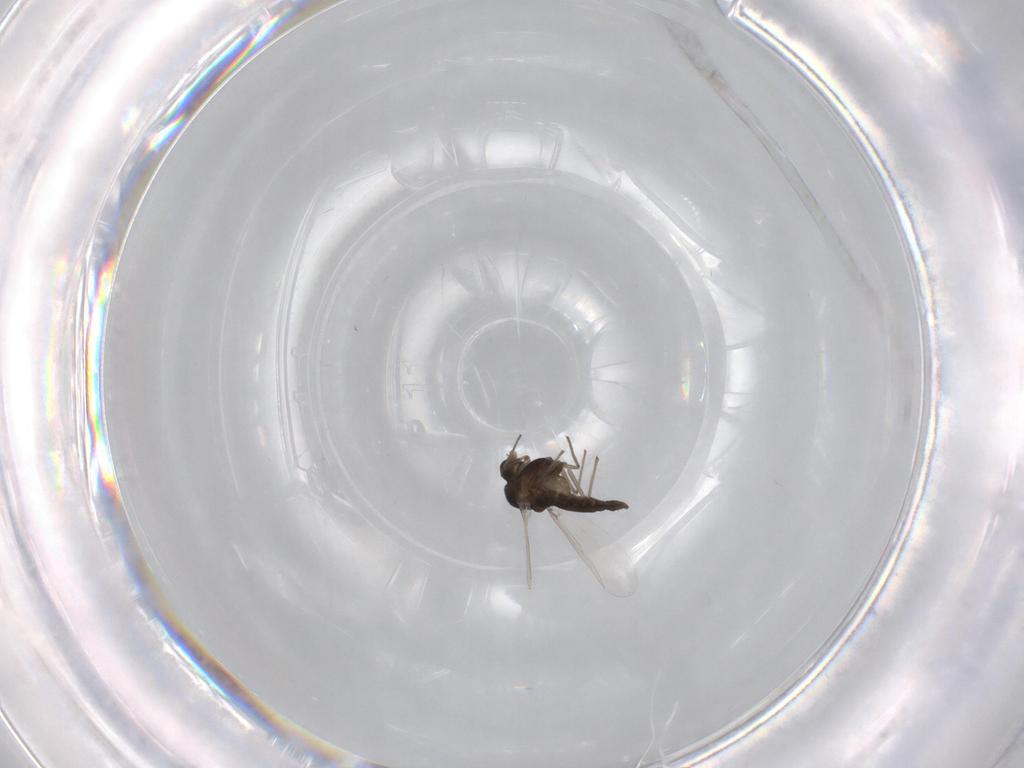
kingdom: Animalia
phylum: Arthropoda
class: Insecta
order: Diptera
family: Chironomidae
